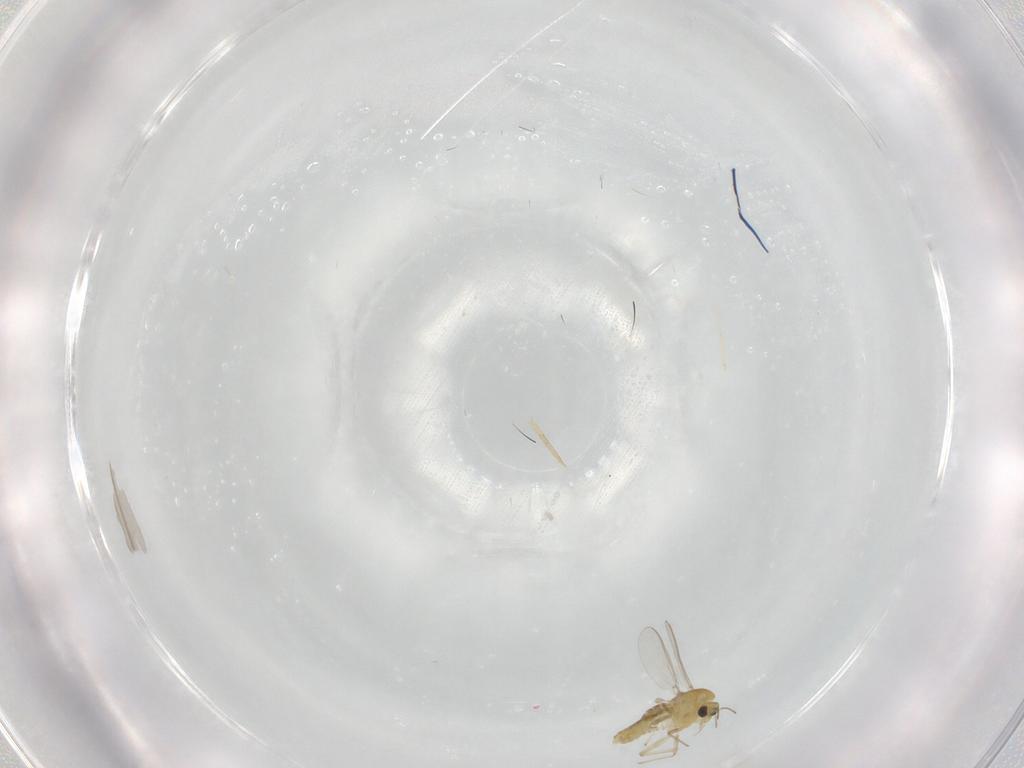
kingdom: Animalia
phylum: Arthropoda
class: Insecta
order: Diptera
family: Chironomidae
